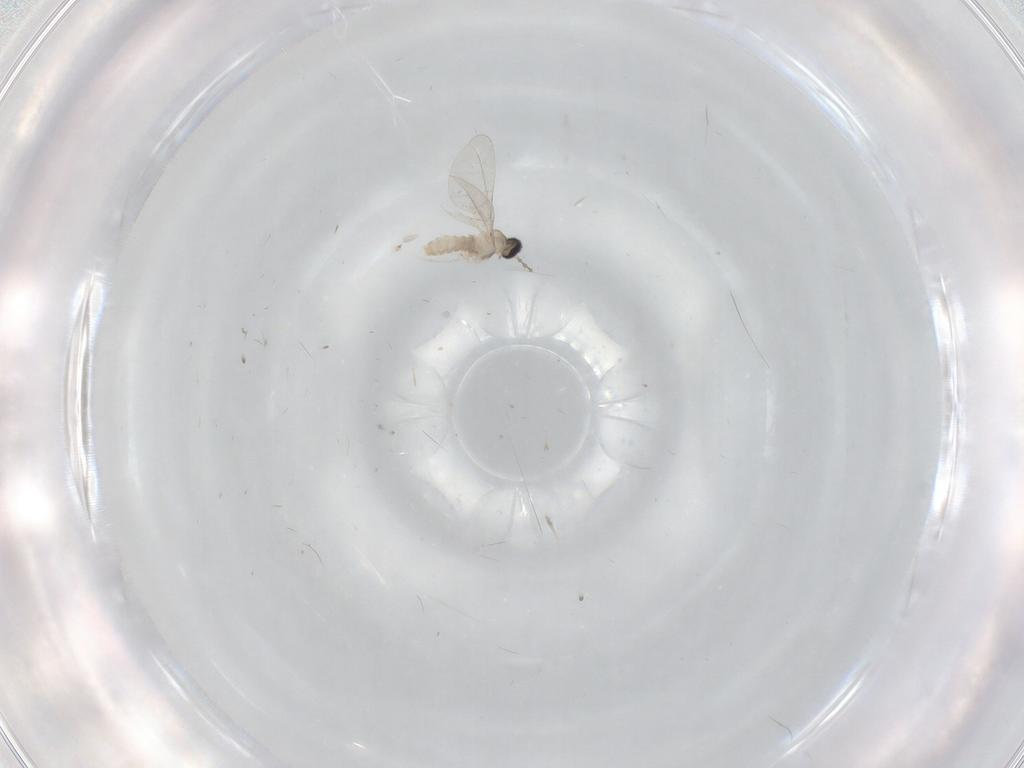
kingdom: Animalia
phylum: Arthropoda
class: Insecta
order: Diptera
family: Cecidomyiidae
